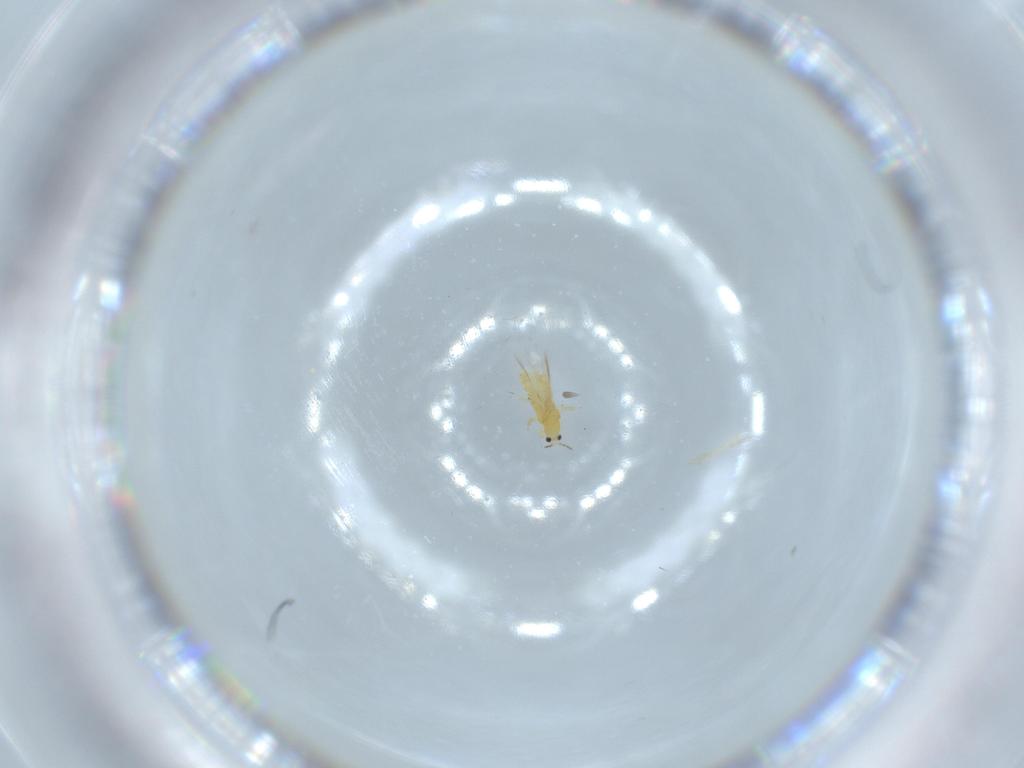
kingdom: Animalia
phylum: Arthropoda
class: Insecta
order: Thysanoptera
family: Thripidae
